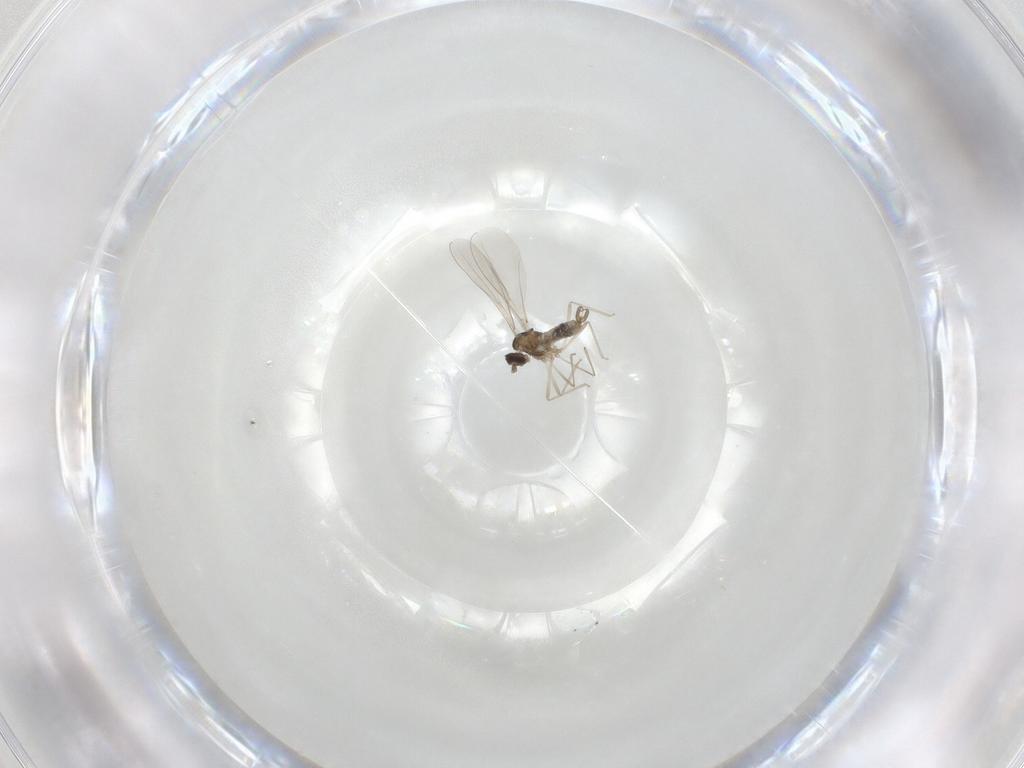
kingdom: Animalia
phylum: Arthropoda
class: Insecta
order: Diptera
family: Cecidomyiidae
